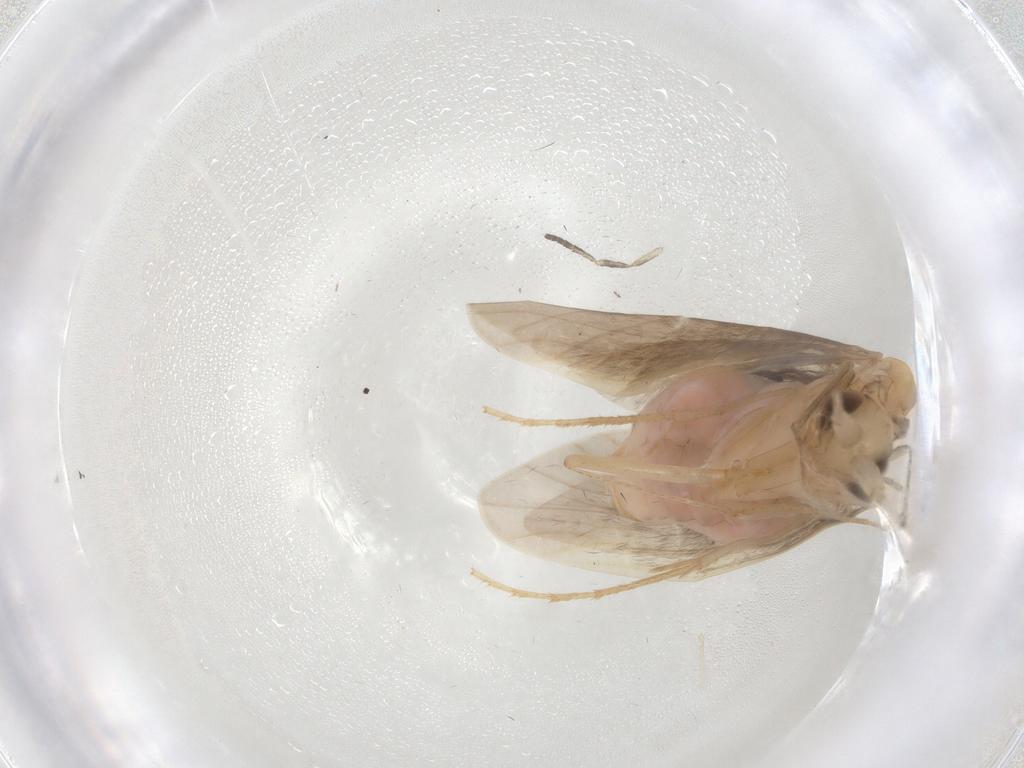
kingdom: Animalia
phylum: Arthropoda
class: Insecta
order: Trichoptera
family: Leptoceridae
